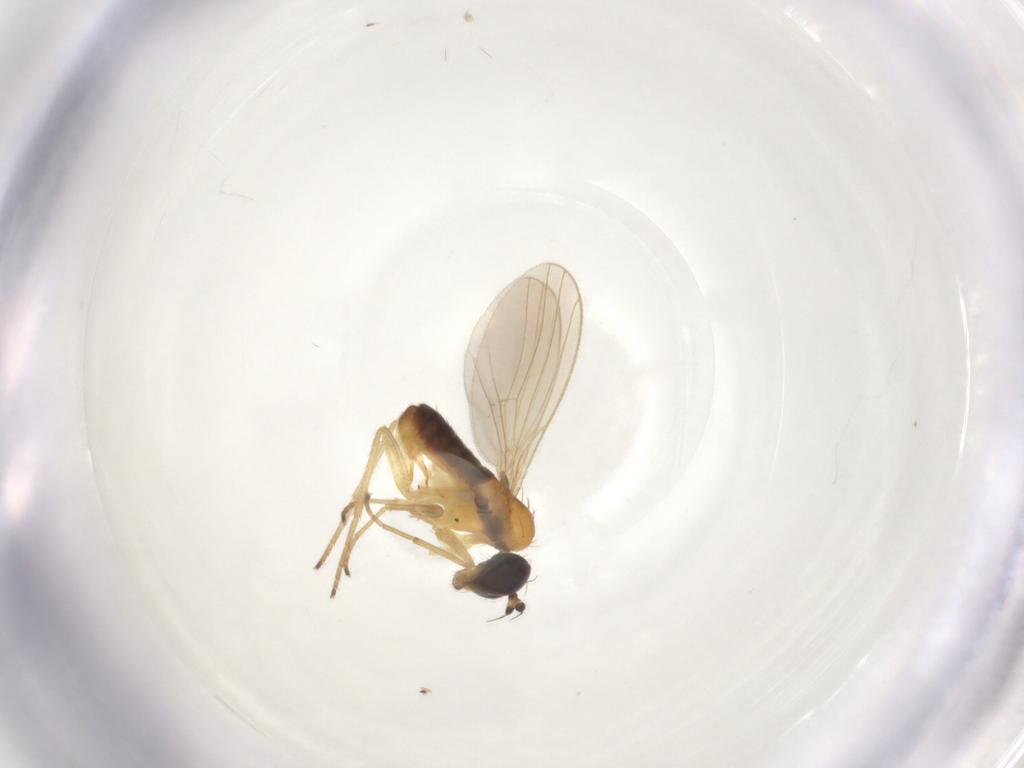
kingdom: Animalia
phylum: Arthropoda
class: Insecta
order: Diptera
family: Dolichopodidae
